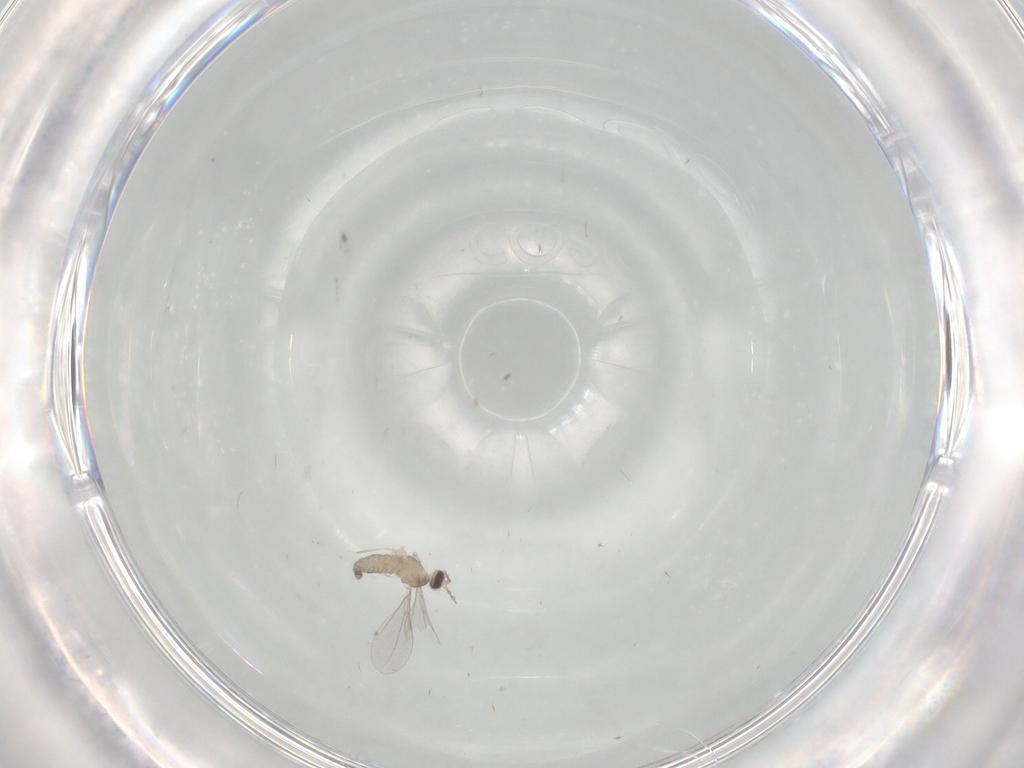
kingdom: Animalia
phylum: Arthropoda
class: Insecta
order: Diptera
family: Cecidomyiidae
